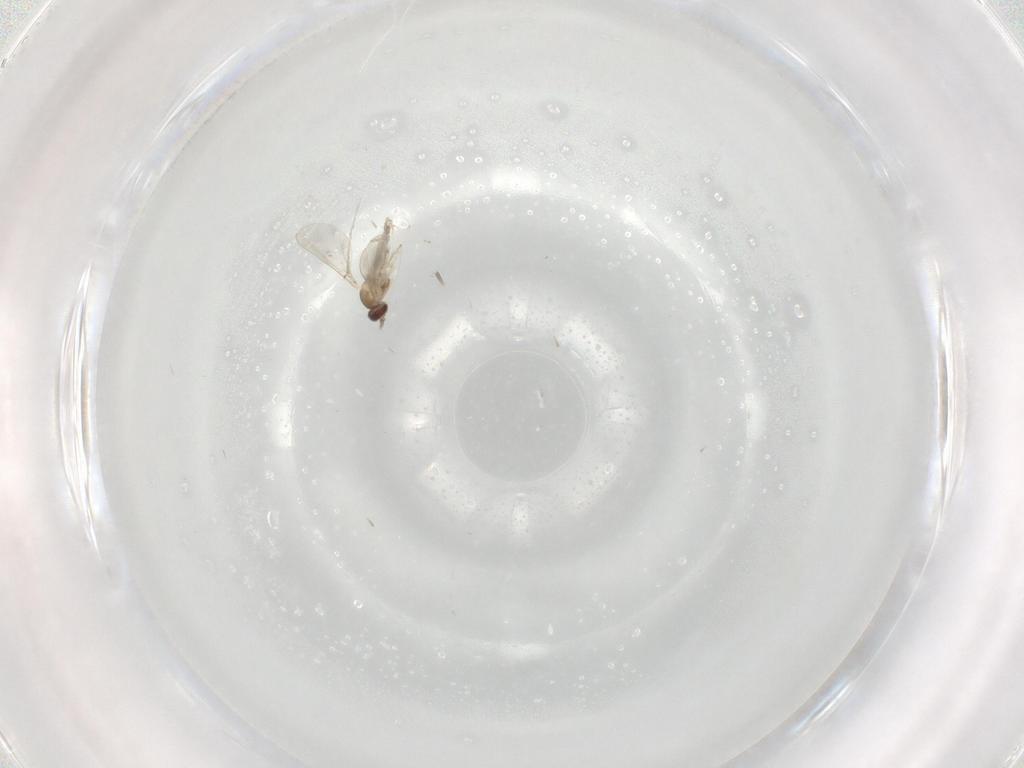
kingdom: Animalia
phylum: Arthropoda
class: Insecta
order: Diptera
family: Cecidomyiidae
